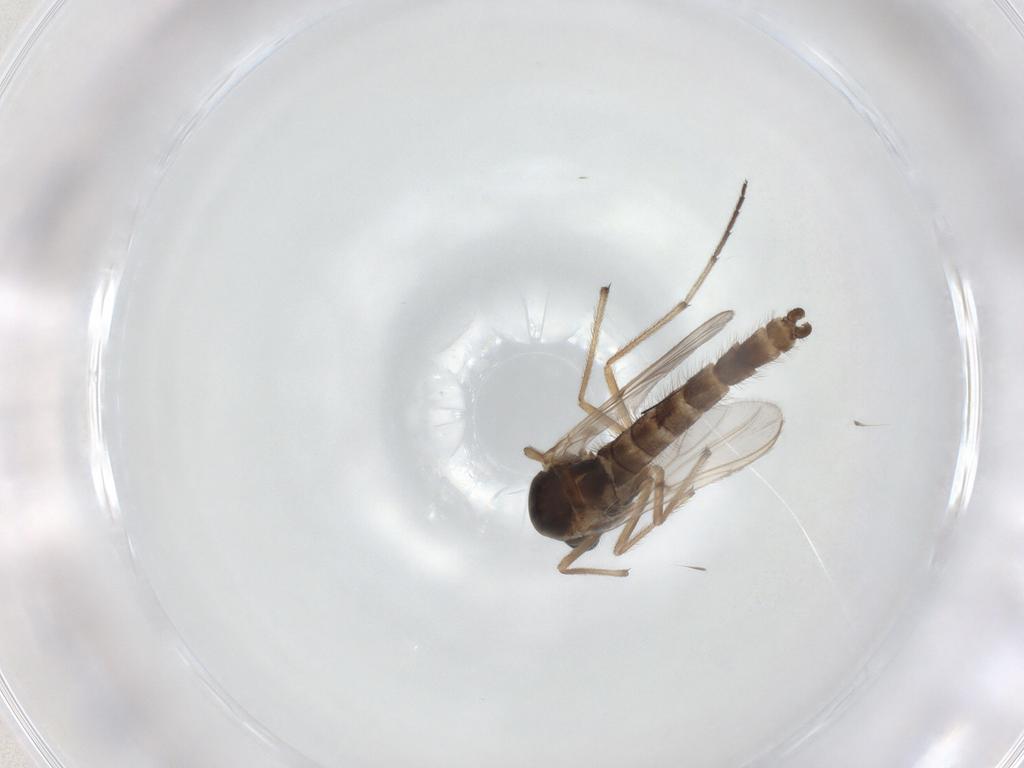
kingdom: Animalia
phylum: Arthropoda
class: Insecta
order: Diptera
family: Chironomidae
